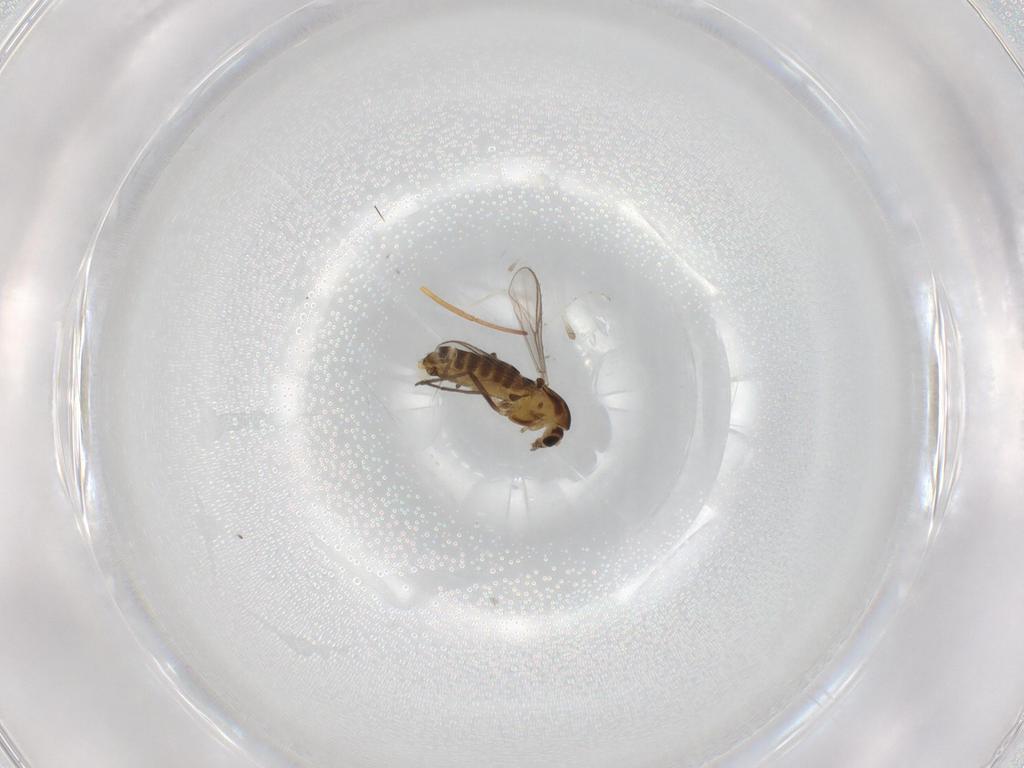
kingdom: Animalia
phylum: Arthropoda
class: Insecta
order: Diptera
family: Chironomidae
